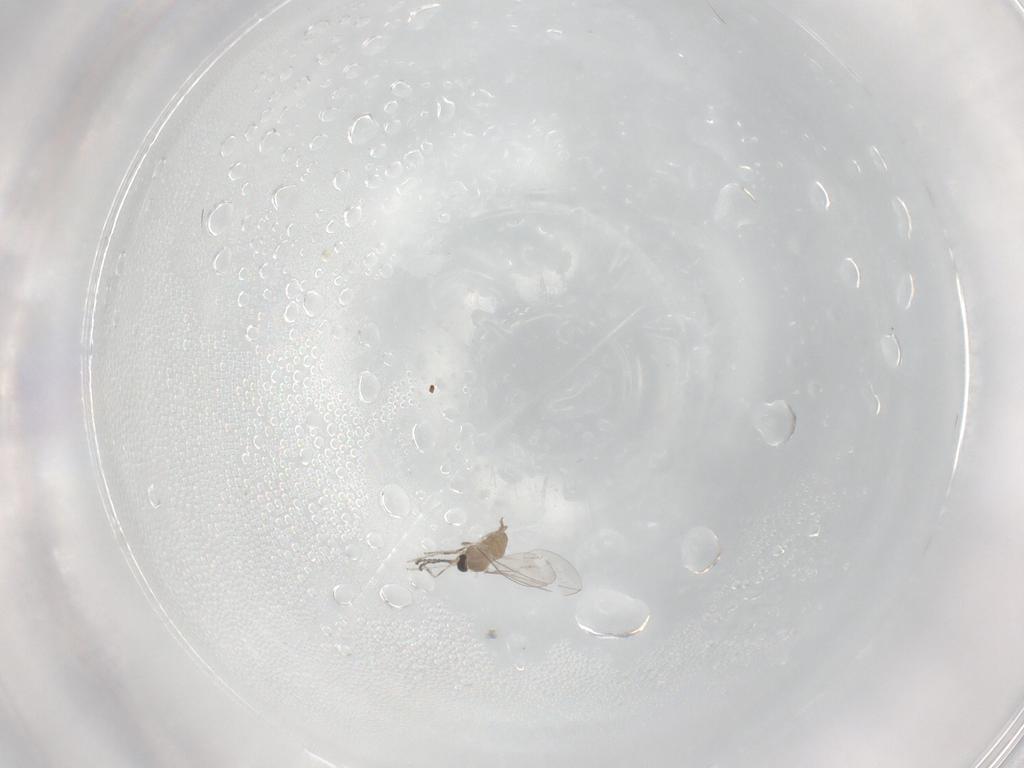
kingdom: Animalia
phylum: Arthropoda
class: Insecta
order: Diptera
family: Cecidomyiidae
